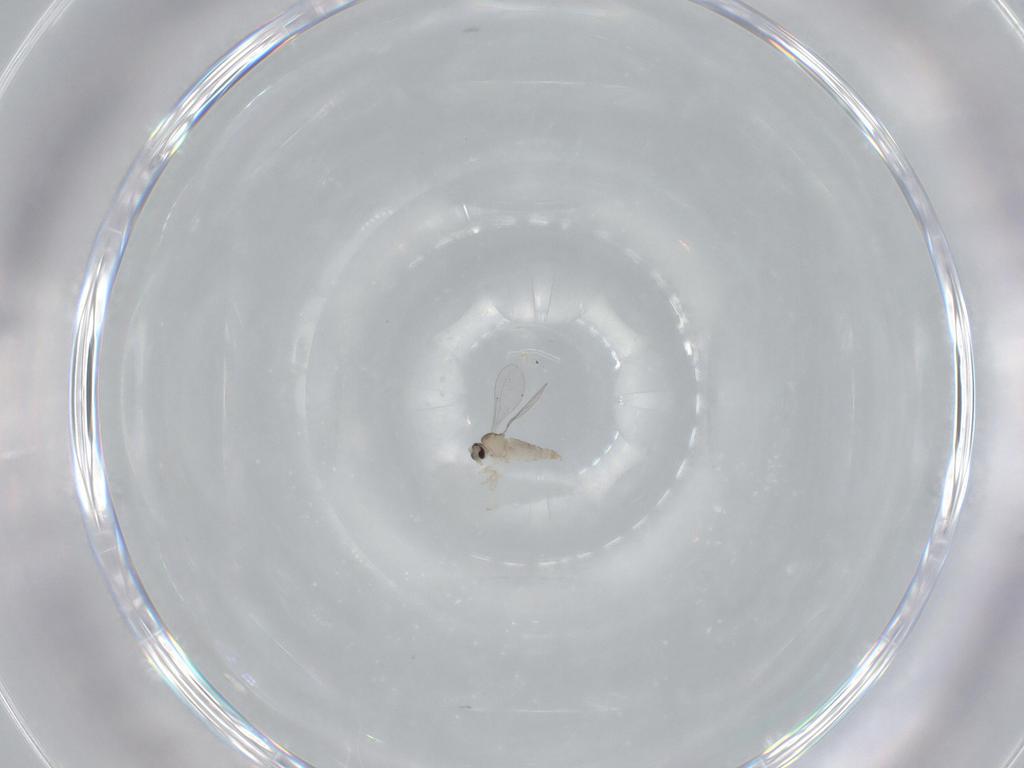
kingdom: Animalia
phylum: Arthropoda
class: Insecta
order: Diptera
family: Cecidomyiidae
